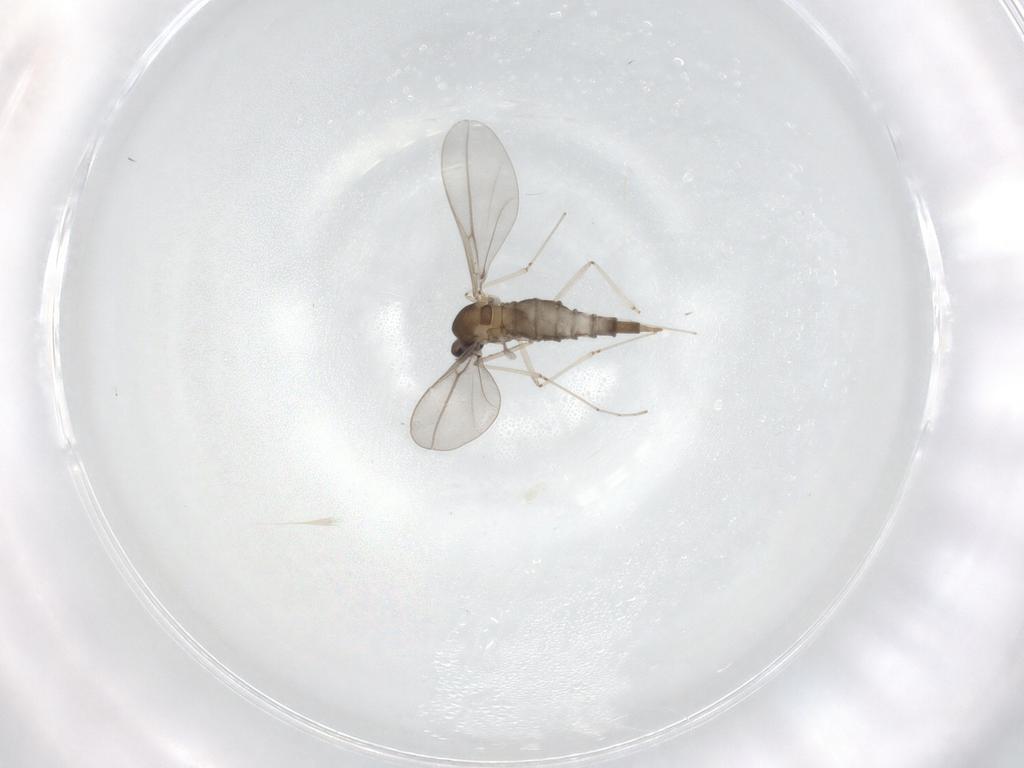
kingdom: Animalia
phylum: Arthropoda
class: Insecta
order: Diptera
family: Cecidomyiidae
